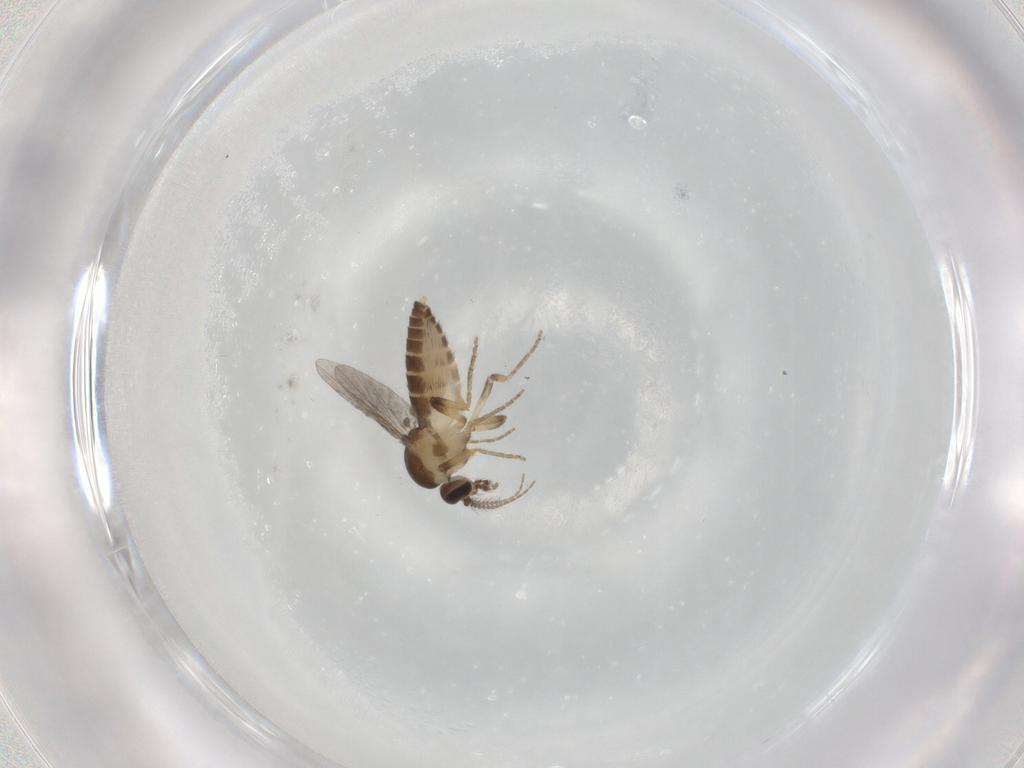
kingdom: Animalia
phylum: Arthropoda
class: Insecta
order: Diptera
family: Ceratopogonidae
